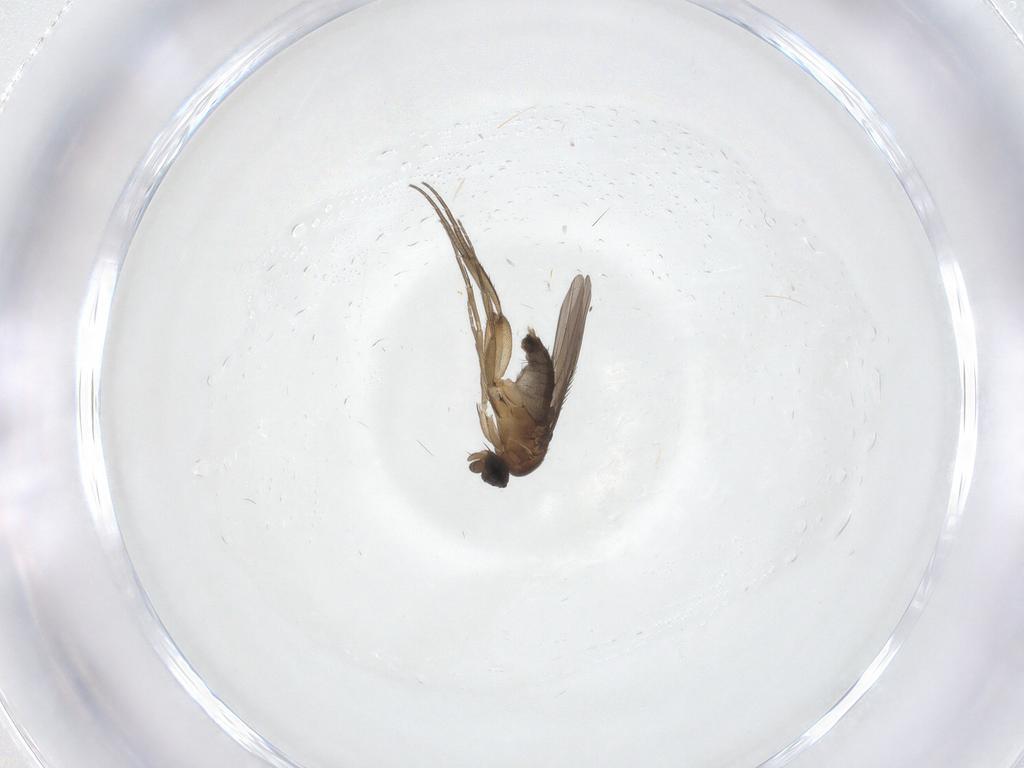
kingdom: Animalia
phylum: Arthropoda
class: Insecta
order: Diptera
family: Phoridae
